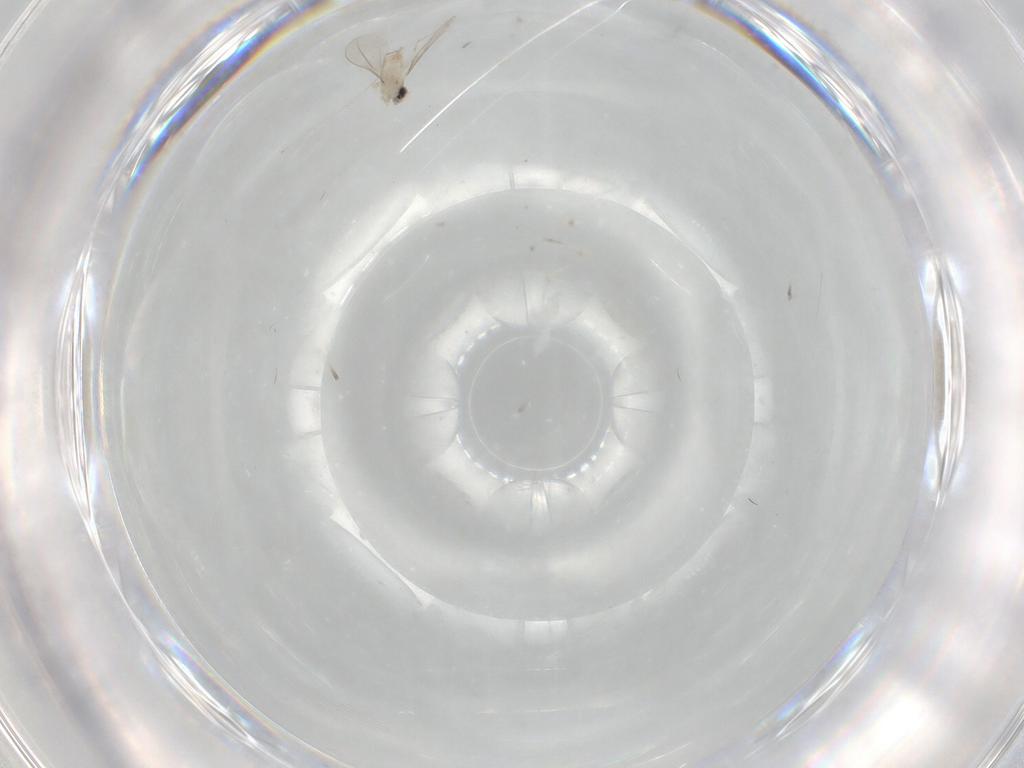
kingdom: Animalia
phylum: Arthropoda
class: Insecta
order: Diptera
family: Cecidomyiidae
